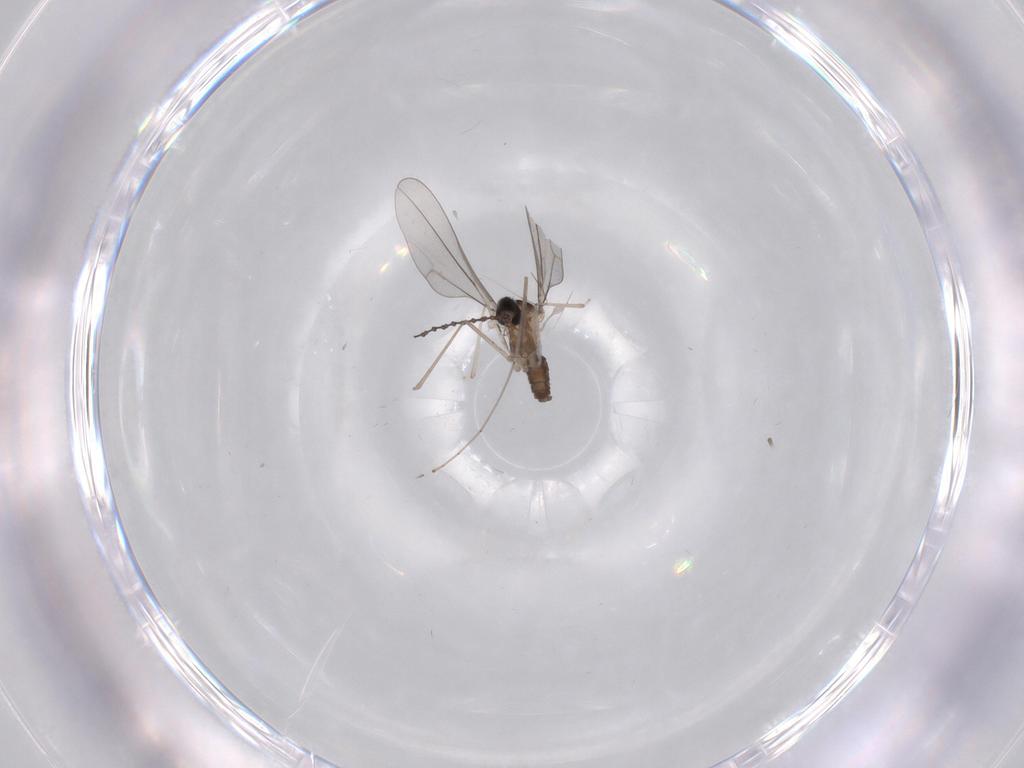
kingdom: Animalia
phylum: Arthropoda
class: Insecta
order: Diptera
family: Cecidomyiidae
